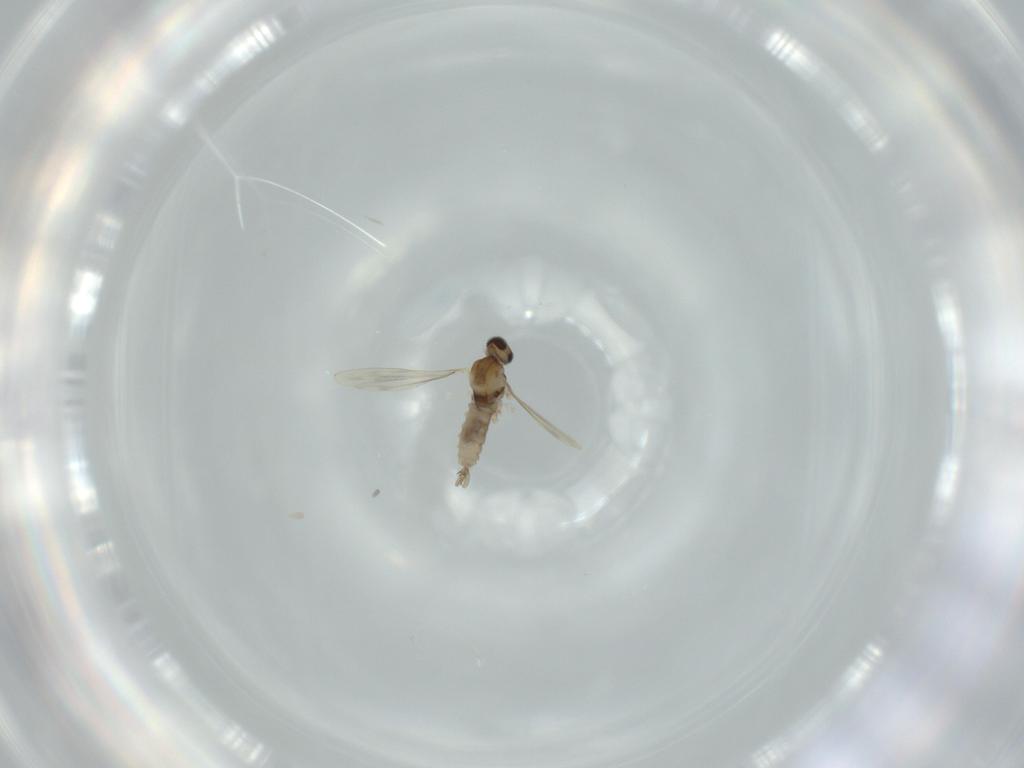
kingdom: Animalia
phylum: Arthropoda
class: Insecta
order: Diptera
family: Cecidomyiidae
